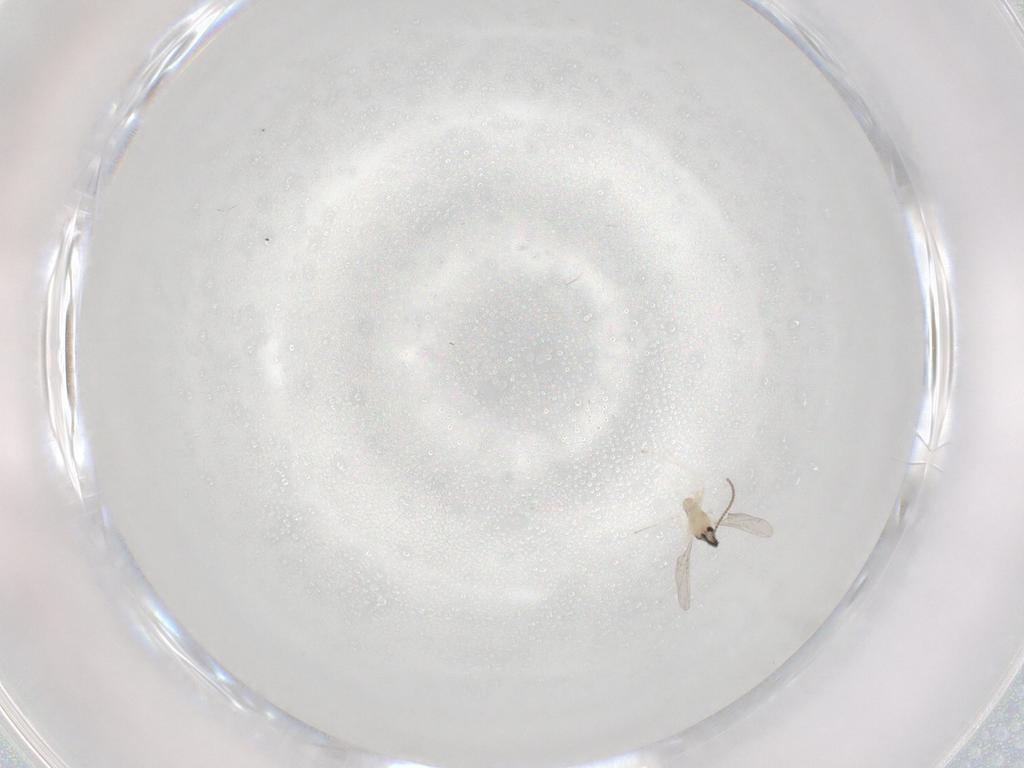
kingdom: Animalia
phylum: Arthropoda
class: Insecta
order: Diptera
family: Cecidomyiidae
